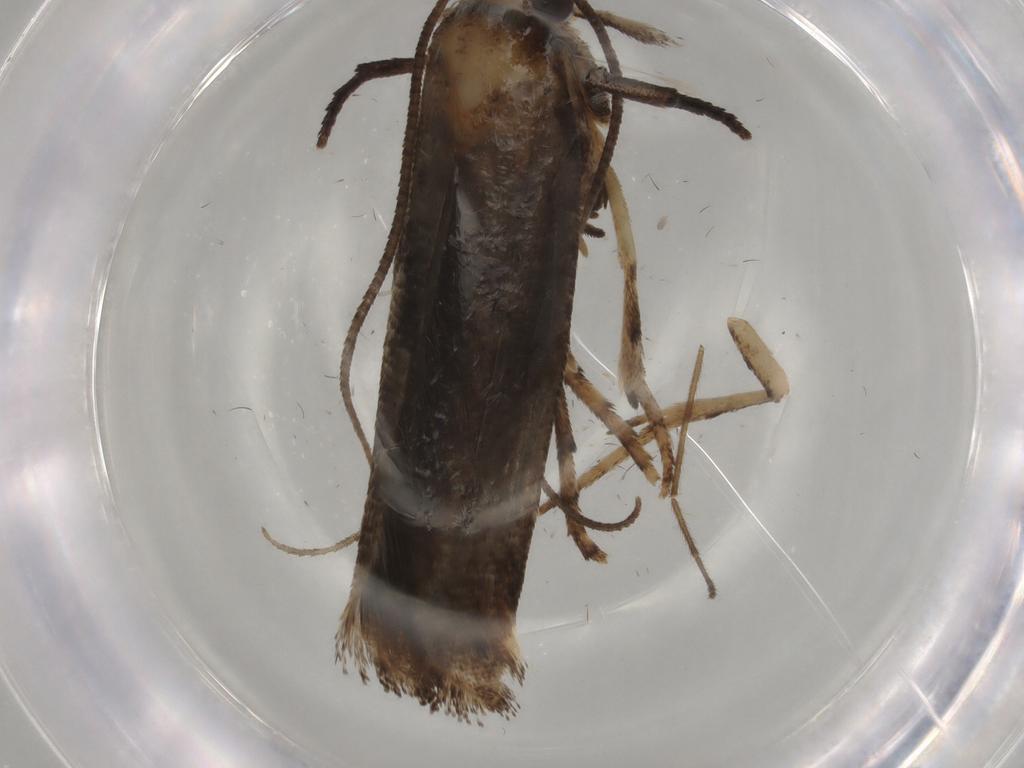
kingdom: Animalia
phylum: Arthropoda
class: Insecta
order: Lepidoptera
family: Yponomeutidae
